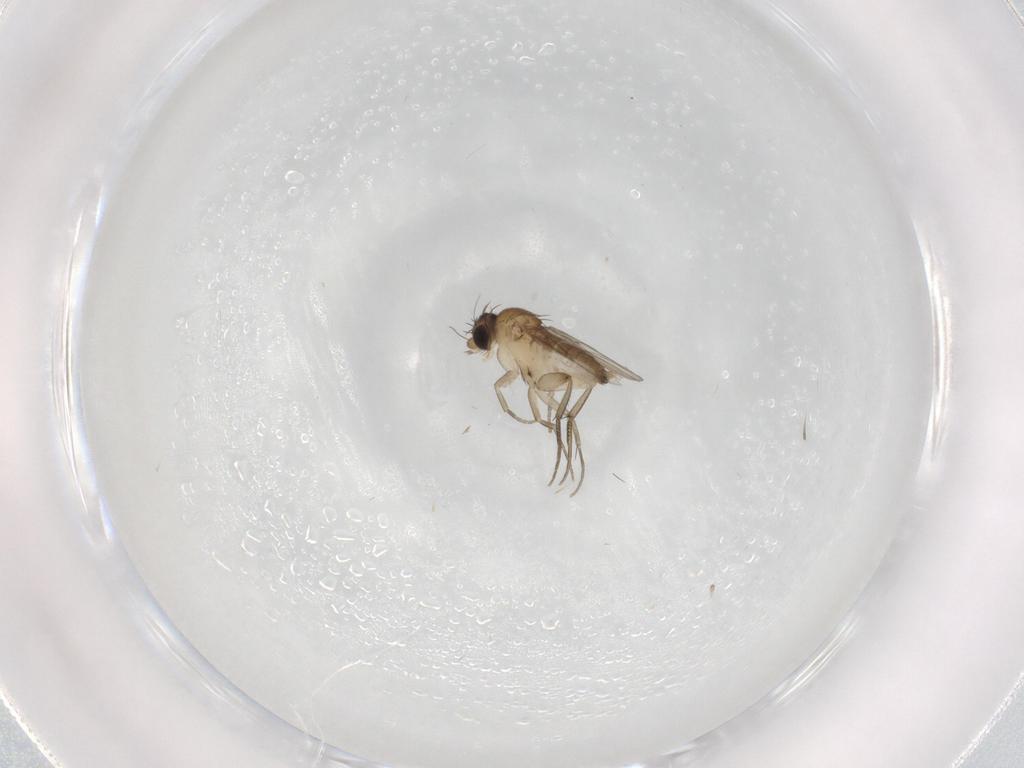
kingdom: Animalia
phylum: Arthropoda
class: Insecta
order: Diptera
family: Phoridae
